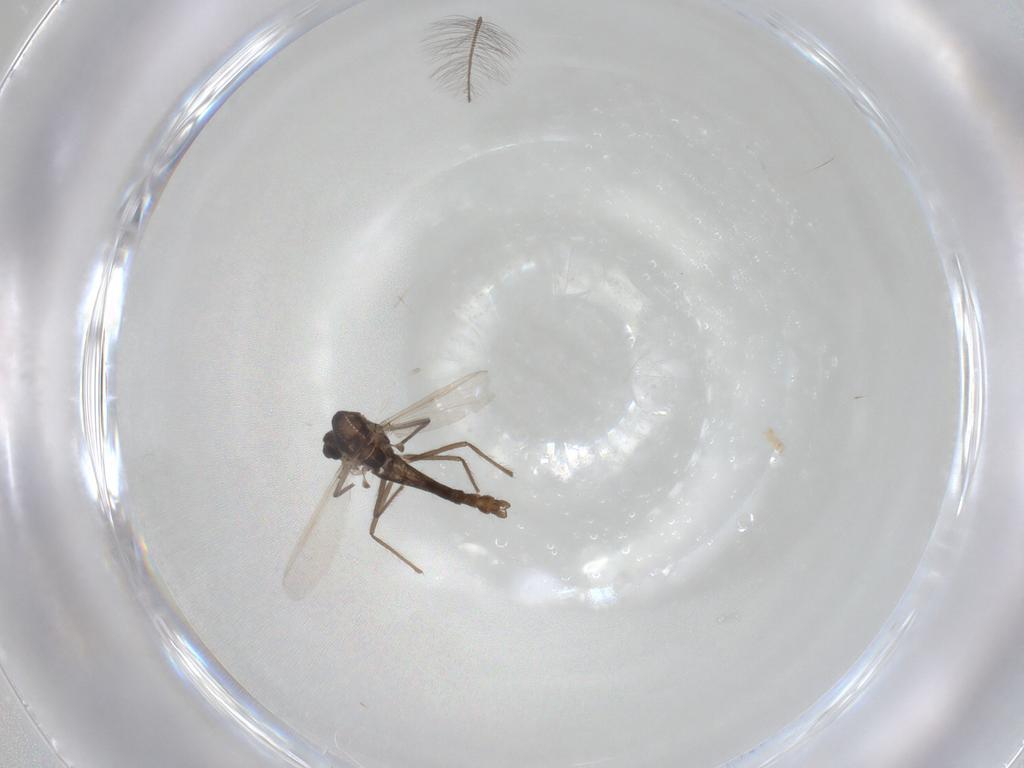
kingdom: Animalia
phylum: Arthropoda
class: Insecta
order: Diptera
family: Chironomidae
